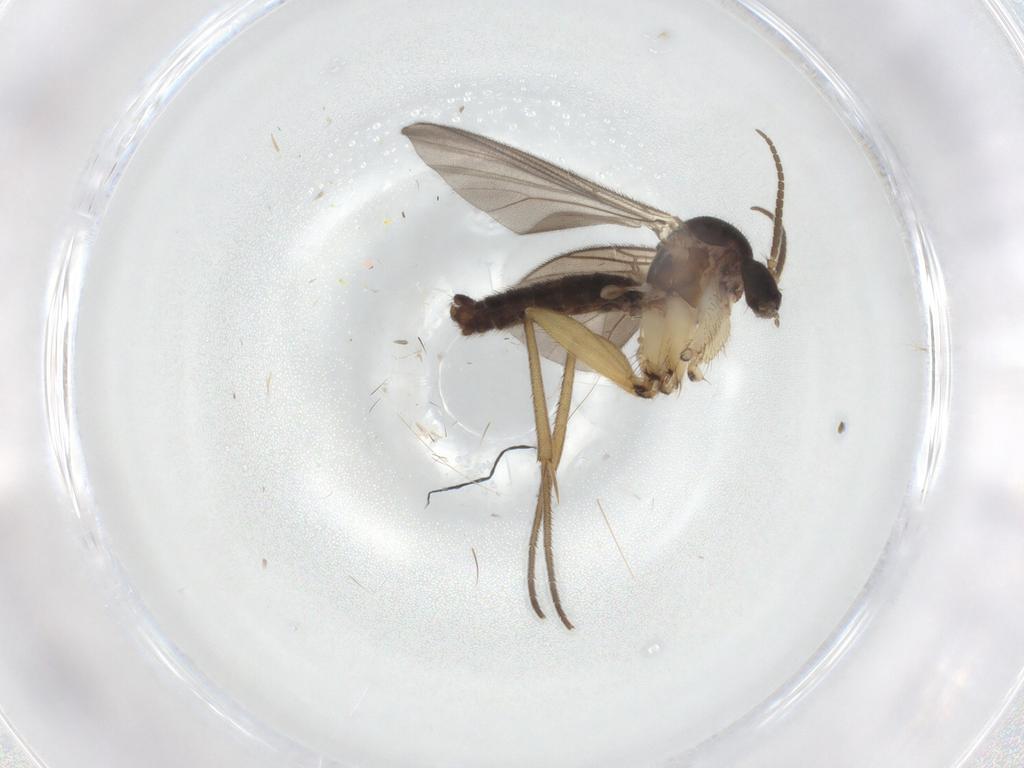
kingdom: Animalia
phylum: Arthropoda
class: Insecta
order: Diptera
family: Mycetophilidae
